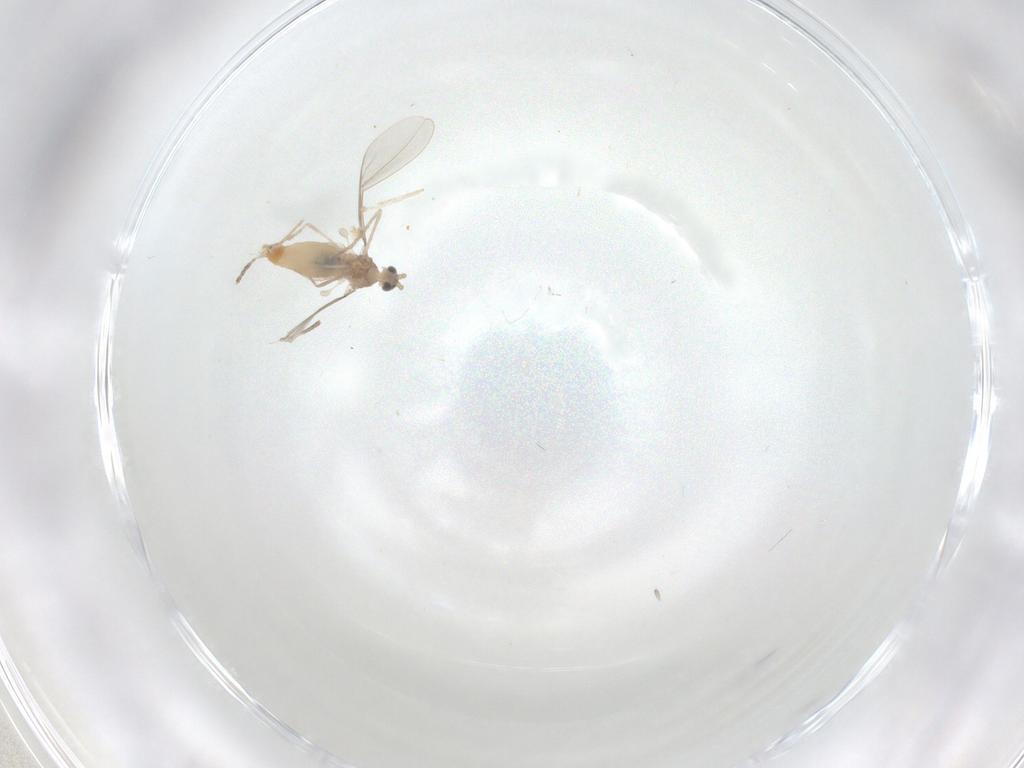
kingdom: Animalia
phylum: Arthropoda
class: Insecta
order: Diptera
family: Cecidomyiidae
